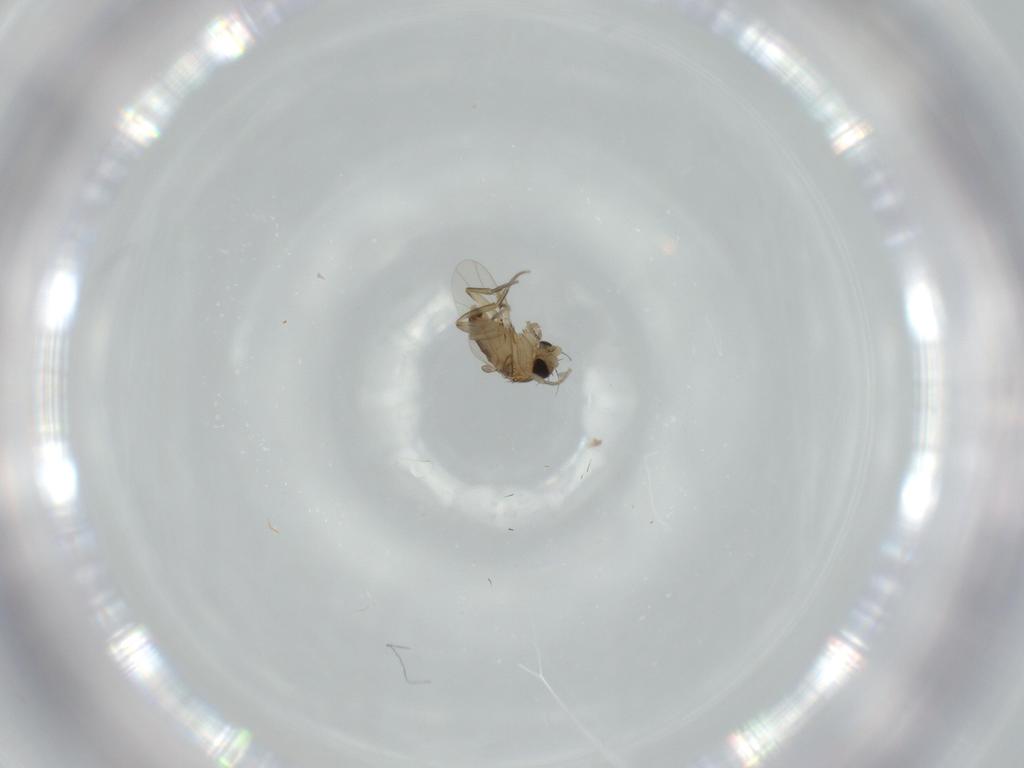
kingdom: Animalia
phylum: Arthropoda
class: Insecta
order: Diptera
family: Phoridae
